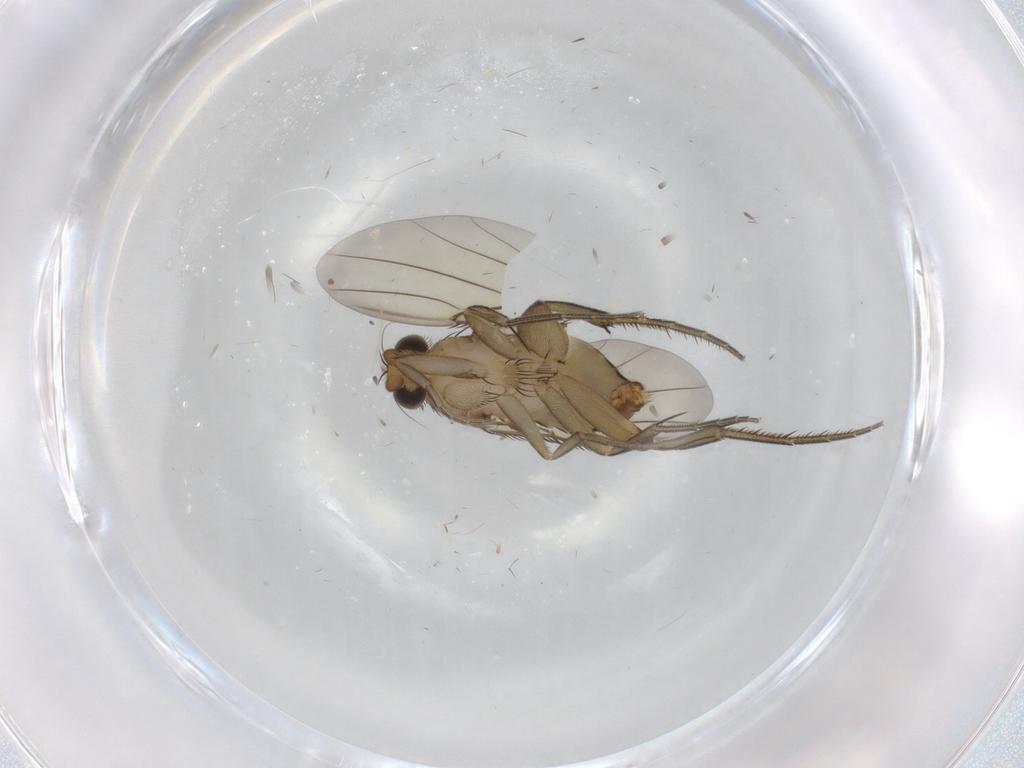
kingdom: Animalia
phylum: Arthropoda
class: Insecta
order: Diptera
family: Phoridae
